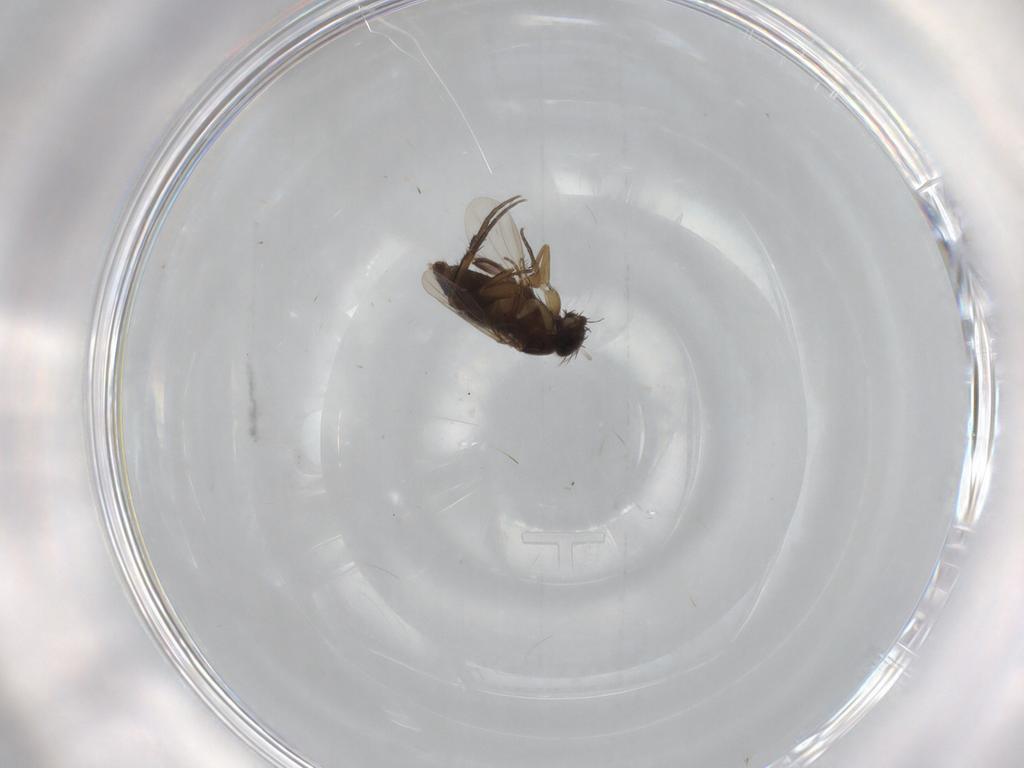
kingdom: Animalia
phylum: Arthropoda
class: Insecta
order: Diptera
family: Phoridae
